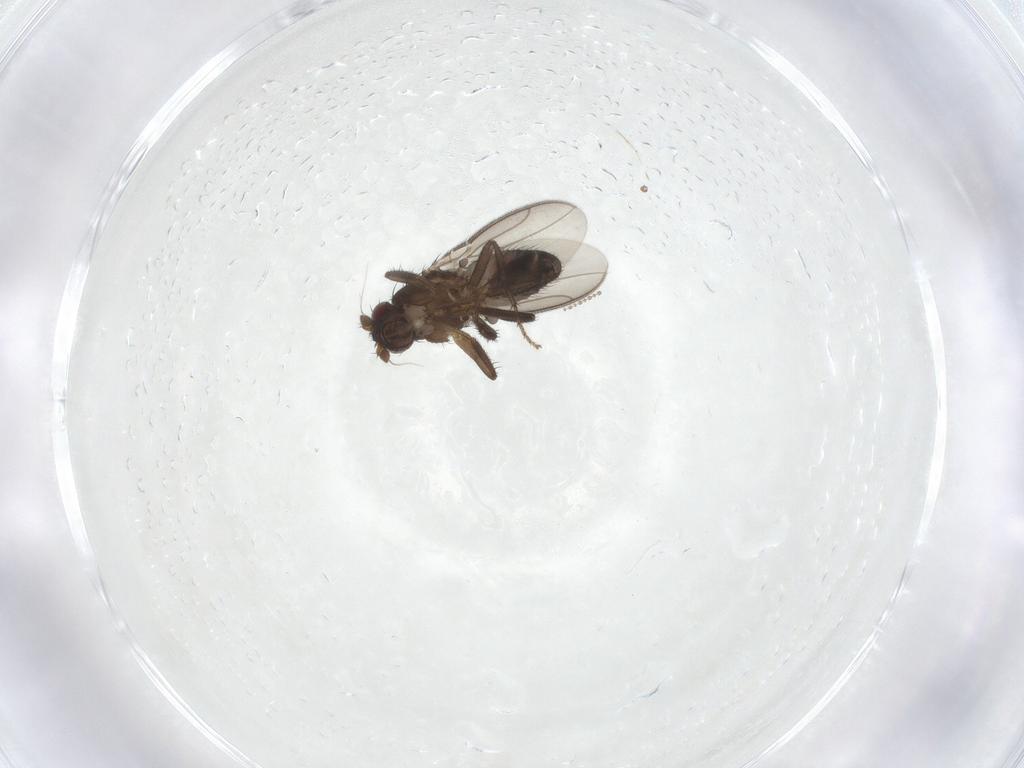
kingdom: Animalia
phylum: Arthropoda
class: Insecta
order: Diptera
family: Sphaeroceridae
